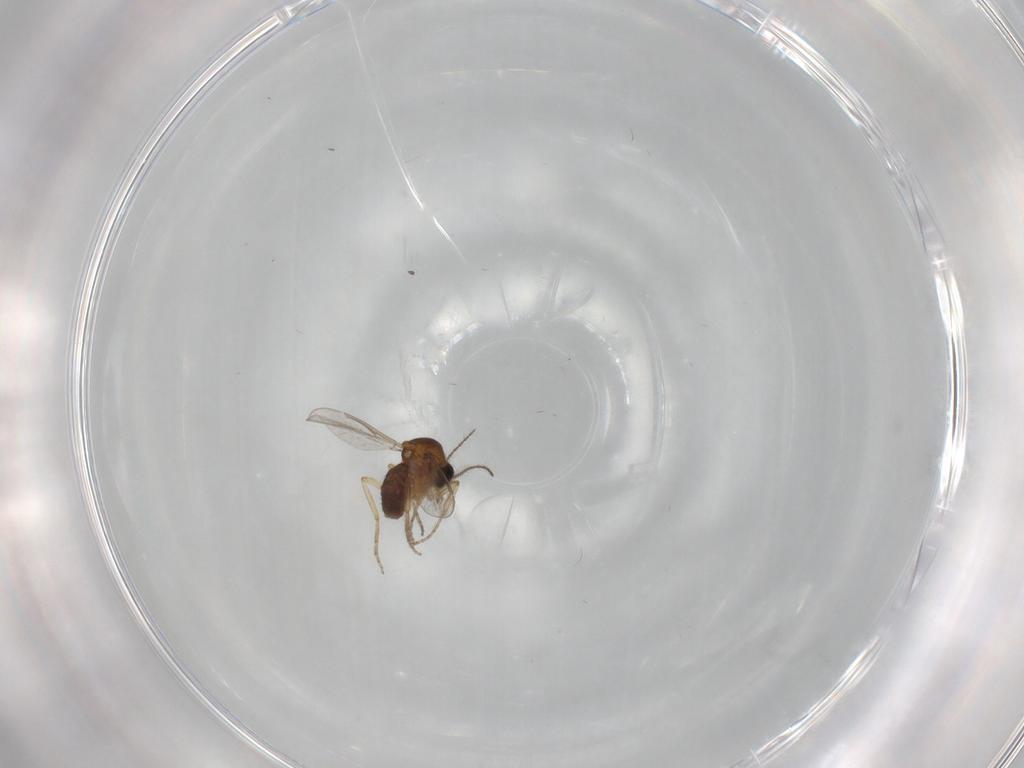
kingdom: Animalia
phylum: Arthropoda
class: Insecta
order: Diptera
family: Ceratopogonidae
